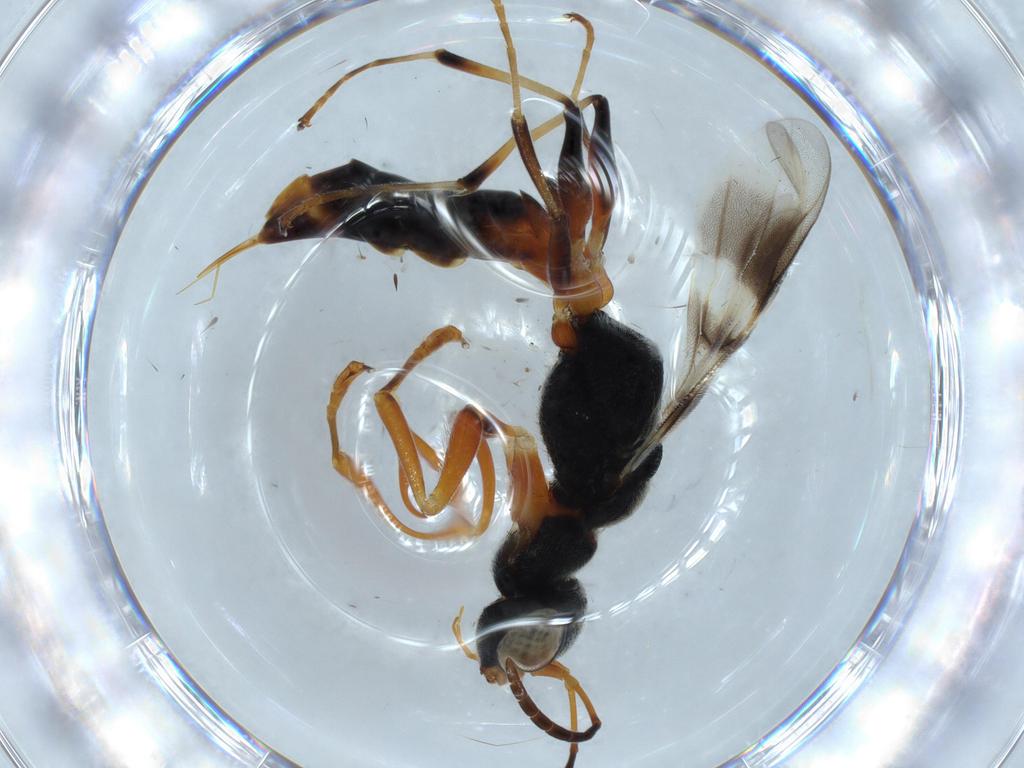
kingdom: Animalia
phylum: Arthropoda
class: Insecta
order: Hymenoptera
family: Dryinidae
